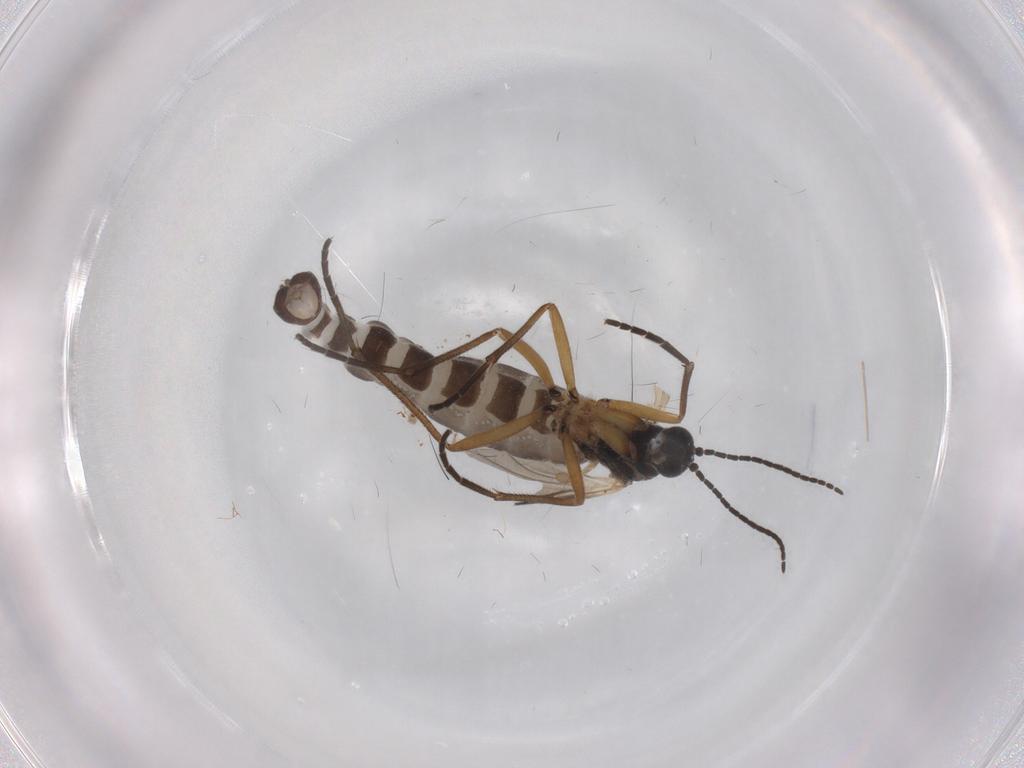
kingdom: Animalia
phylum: Arthropoda
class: Insecta
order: Diptera
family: Sciaridae
